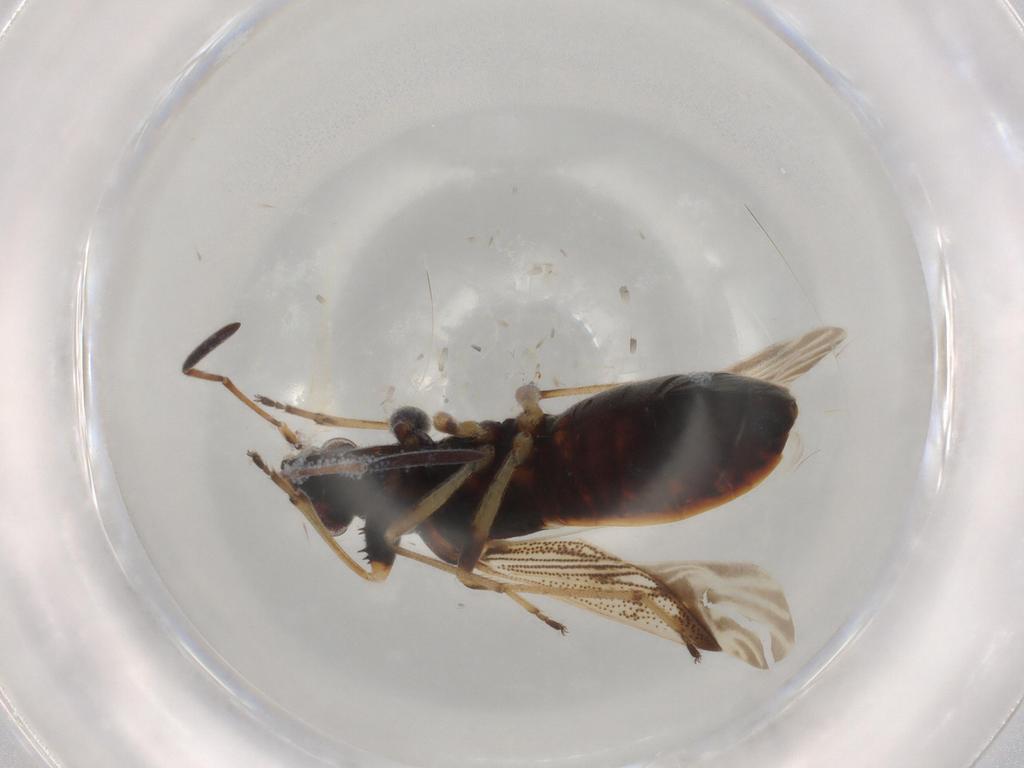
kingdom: Animalia
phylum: Arthropoda
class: Insecta
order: Hemiptera
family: Rhyparochromidae
